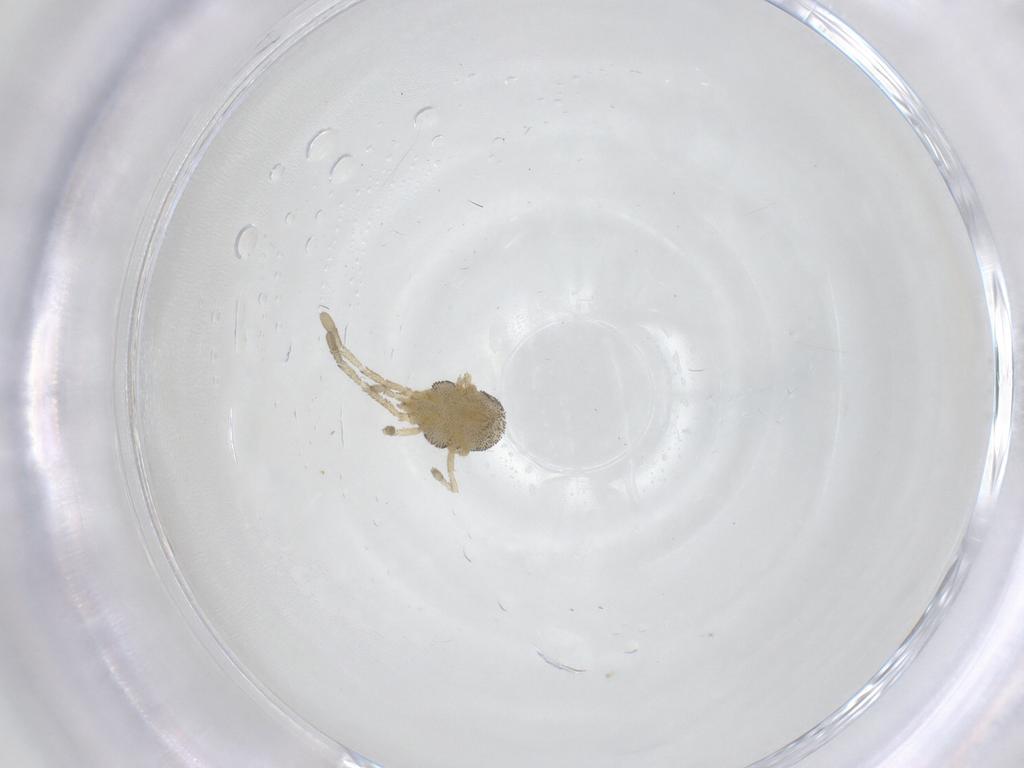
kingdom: Animalia
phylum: Arthropoda
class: Arachnida
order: Trombidiformes
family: Smarididae
